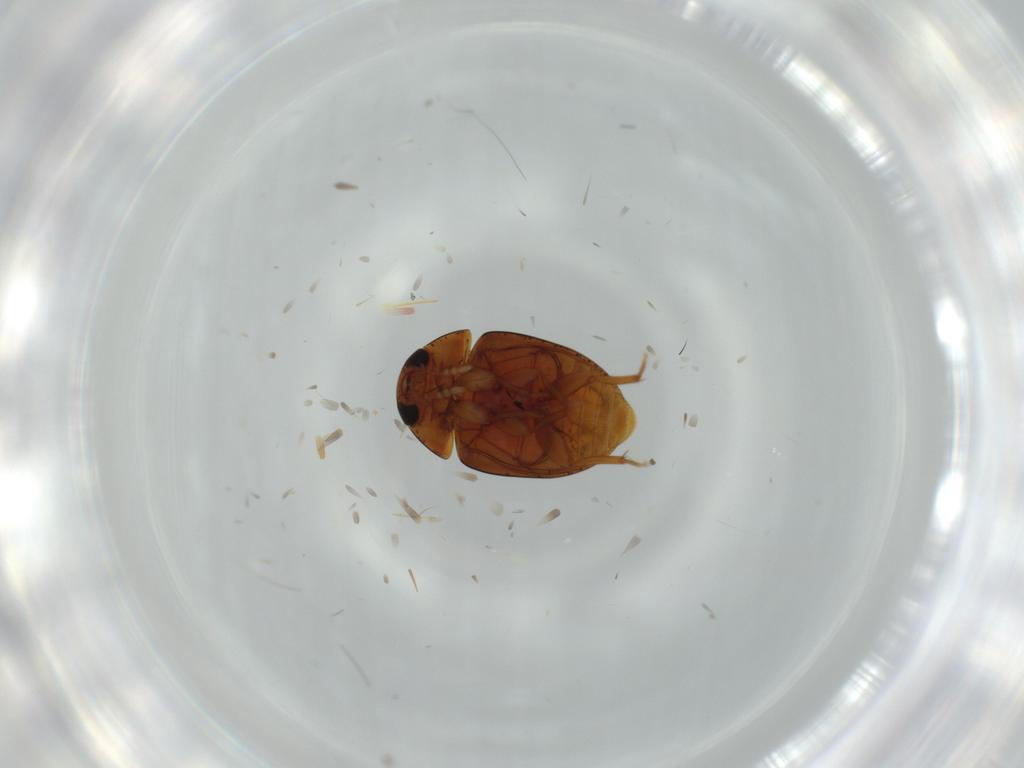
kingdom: Animalia
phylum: Arthropoda
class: Insecta
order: Coleoptera
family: Phalacridae
